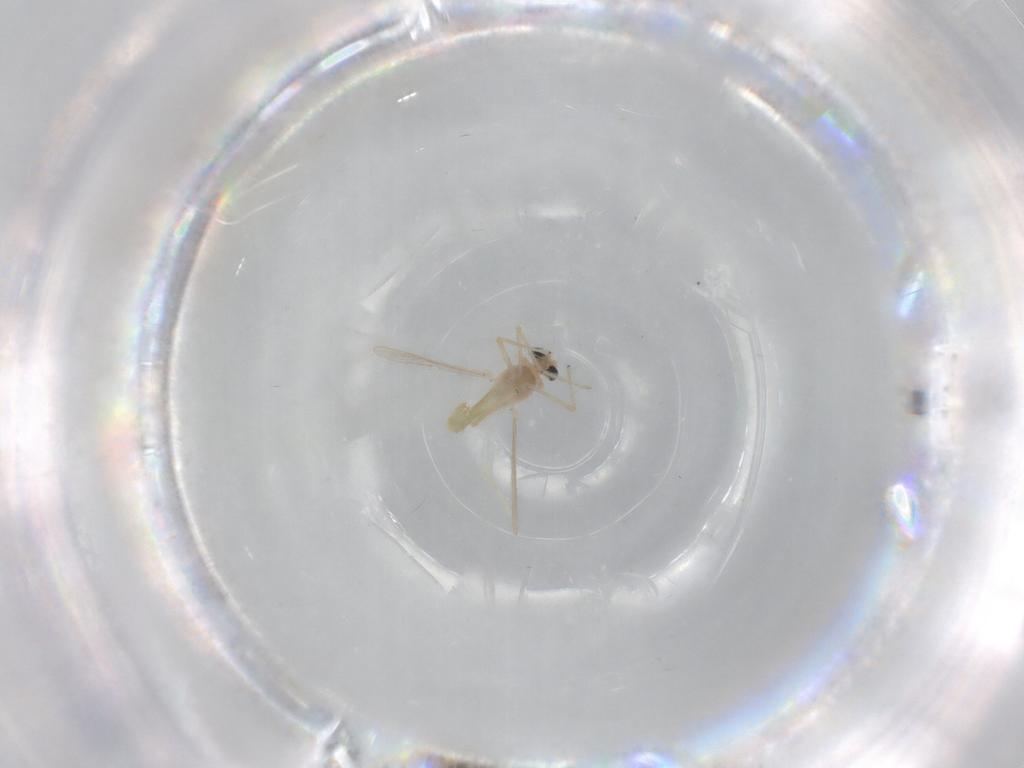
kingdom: Animalia
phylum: Arthropoda
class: Insecta
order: Diptera
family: Chironomidae
